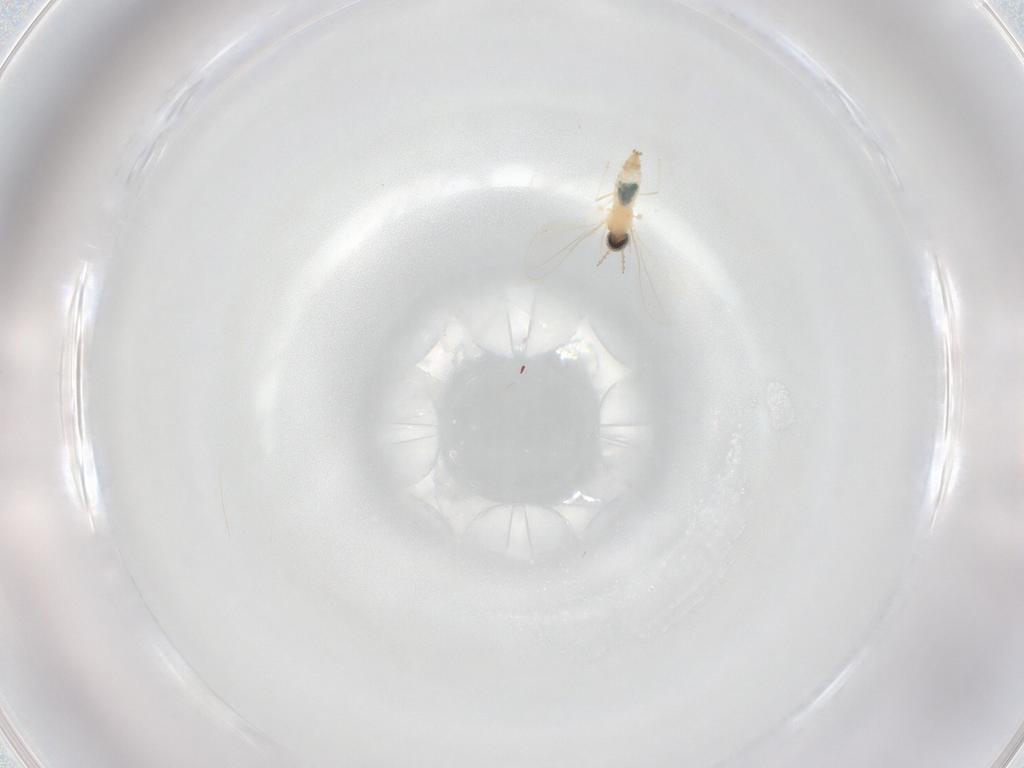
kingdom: Animalia
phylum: Arthropoda
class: Insecta
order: Diptera
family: Cecidomyiidae
